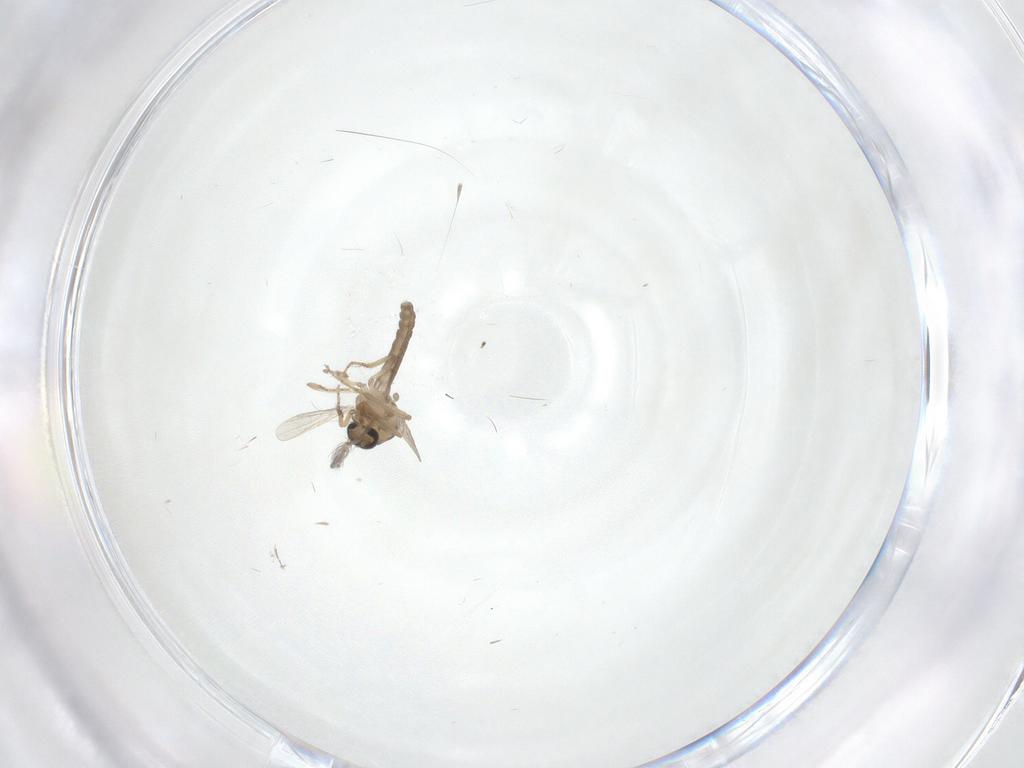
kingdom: Animalia
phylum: Arthropoda
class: Insecta
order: Diptera
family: Ceratopogonidae
